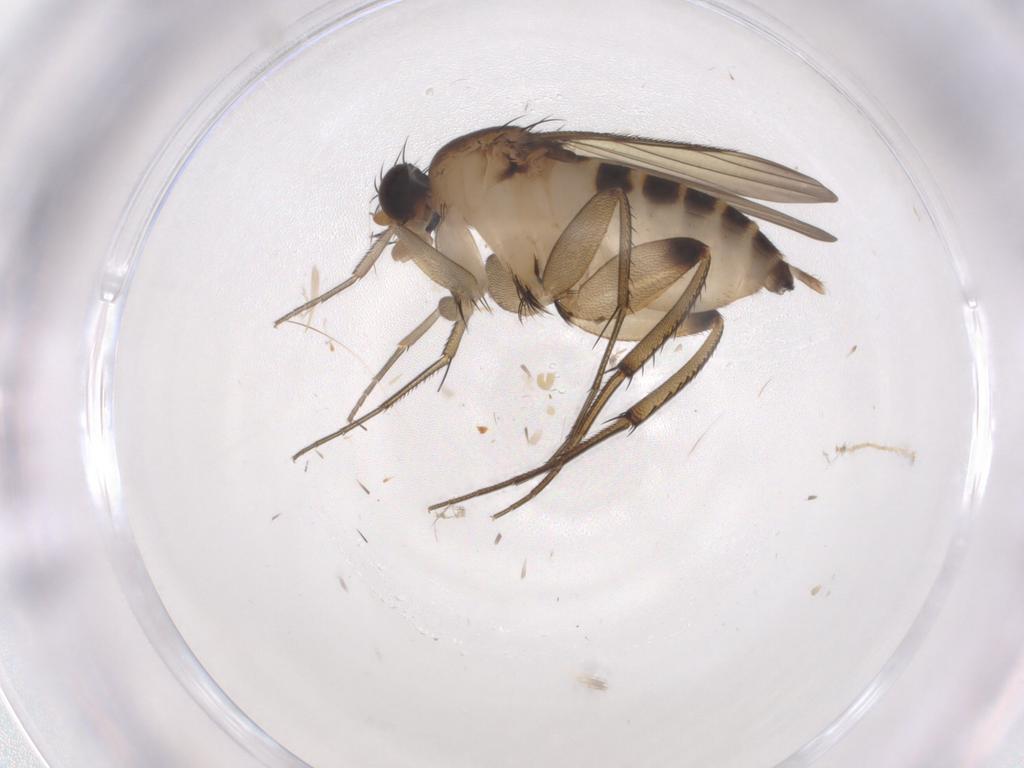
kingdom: Animalia
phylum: Arthropoda
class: Insecta
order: Diptera
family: Phoridae
